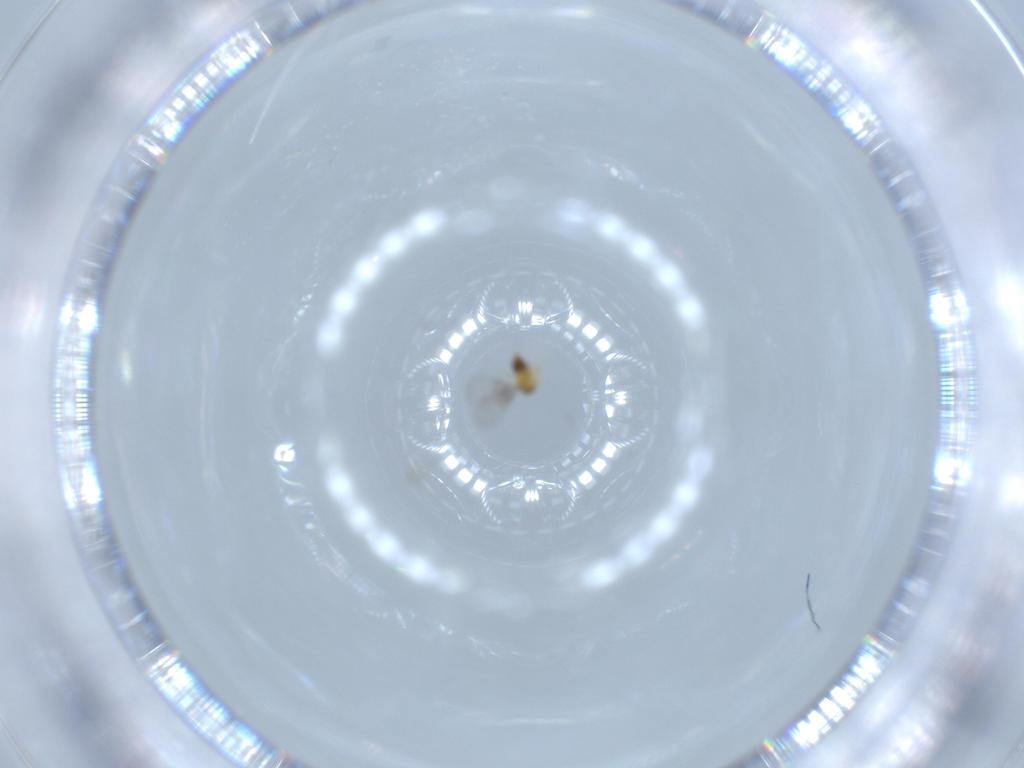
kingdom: Animalia
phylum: Arthropoda
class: Insecta
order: Hymenoptera
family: Trichogrammatidae
